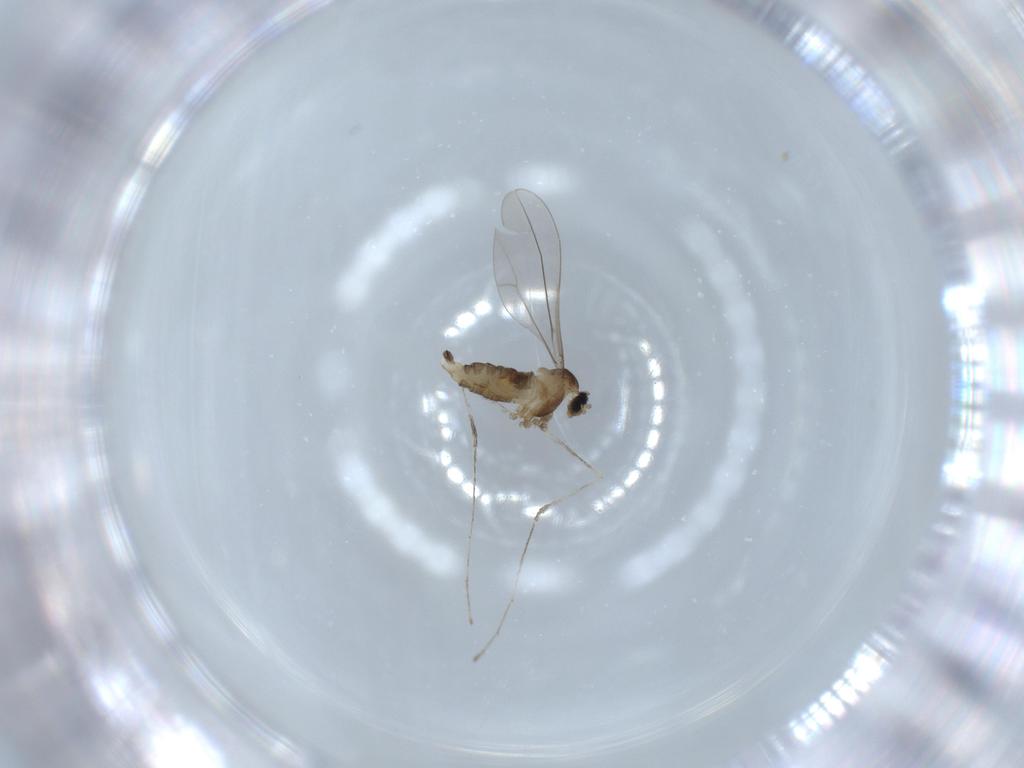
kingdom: Animalia
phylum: Arthropoda
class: Insecta
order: Diptera
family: Cecidomyiidae
